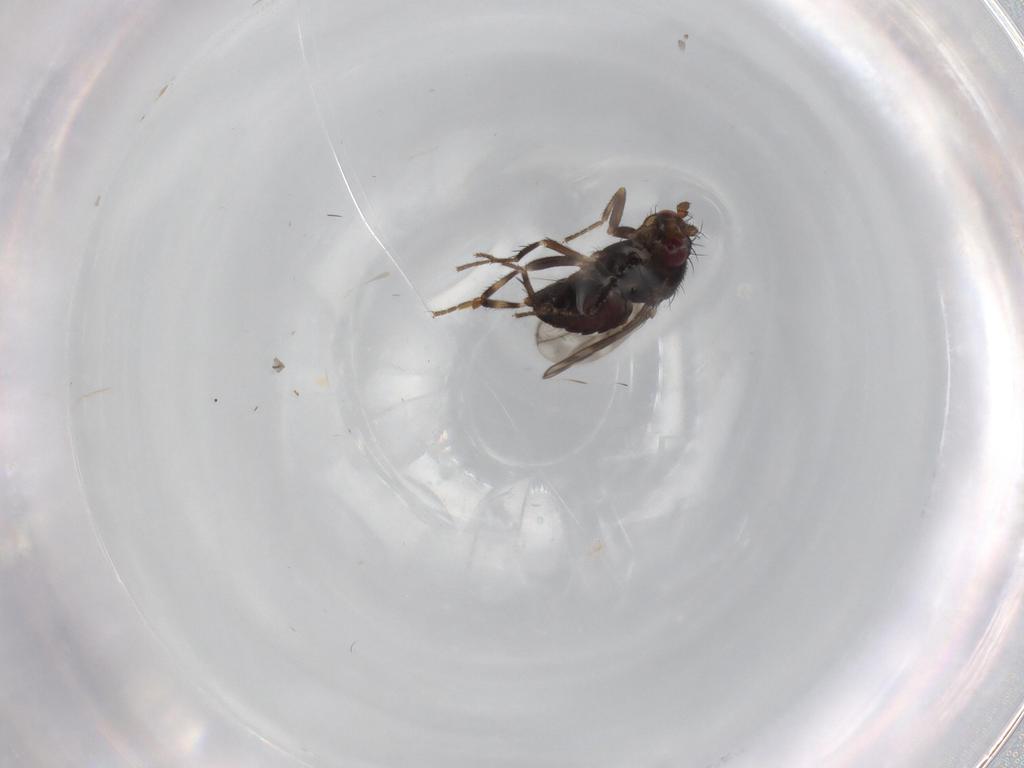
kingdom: Animalia
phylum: Arthropoda
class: Insecta
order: Diptera
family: Sphaeroceridae
